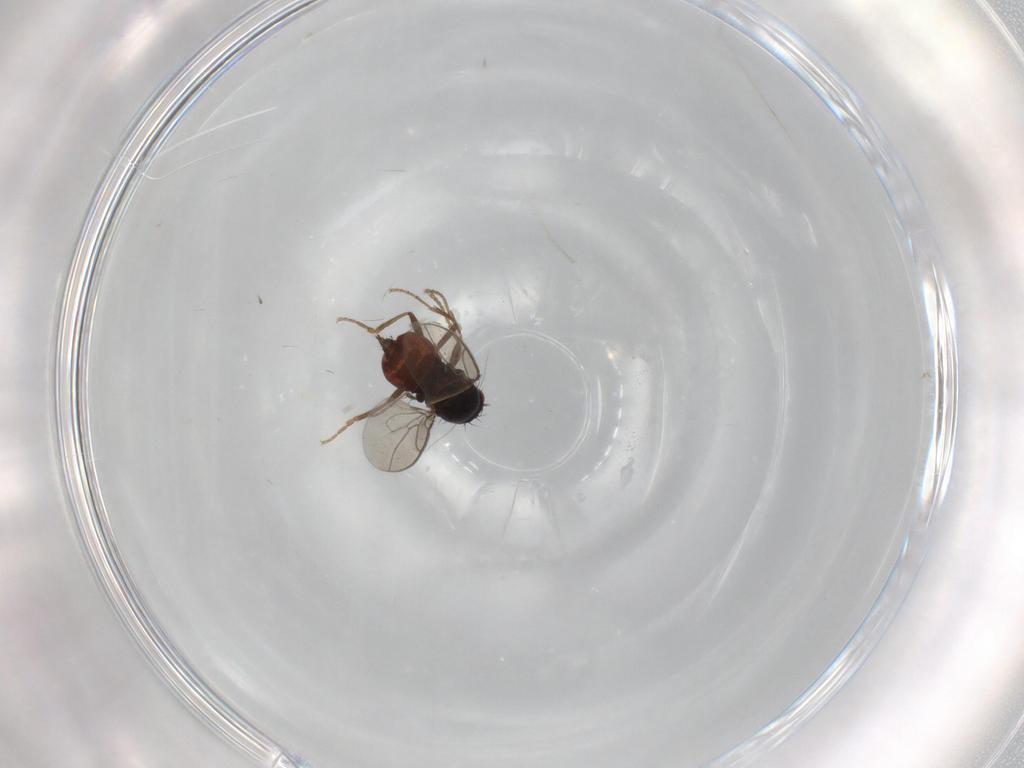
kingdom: Animalia
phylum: Arthropoda
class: Insecta
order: Diptera
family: Sphaeroceridae
